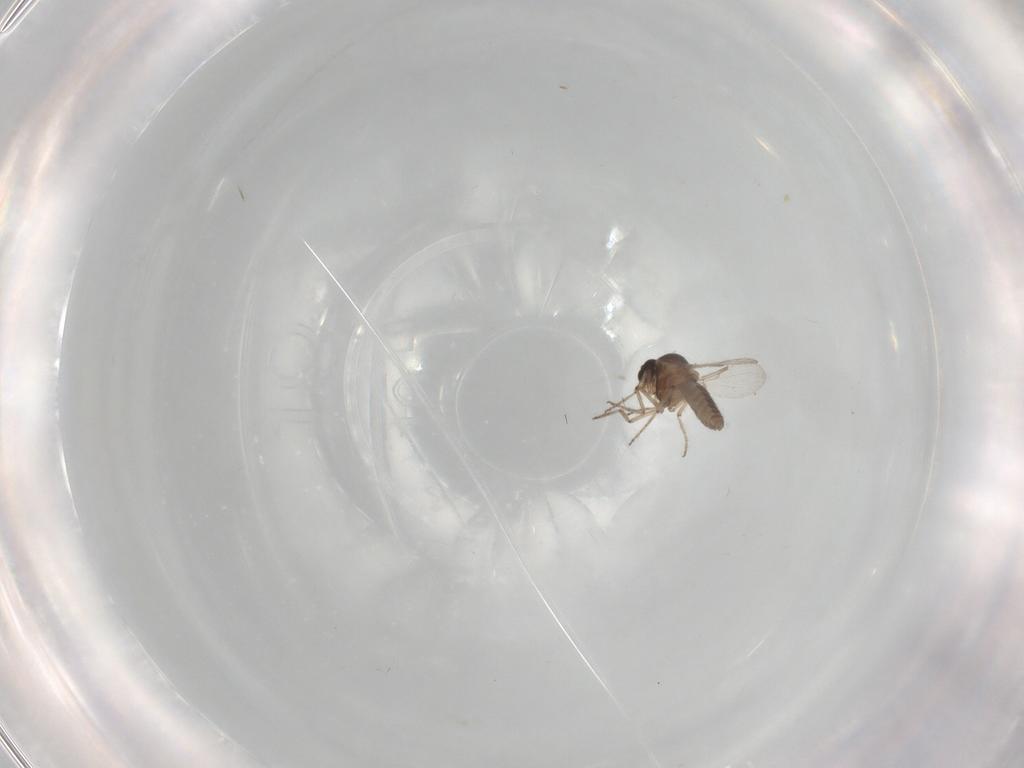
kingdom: Animalia
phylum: Arthropoda
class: Insecta
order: Diptera
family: Ceratopogonidae
